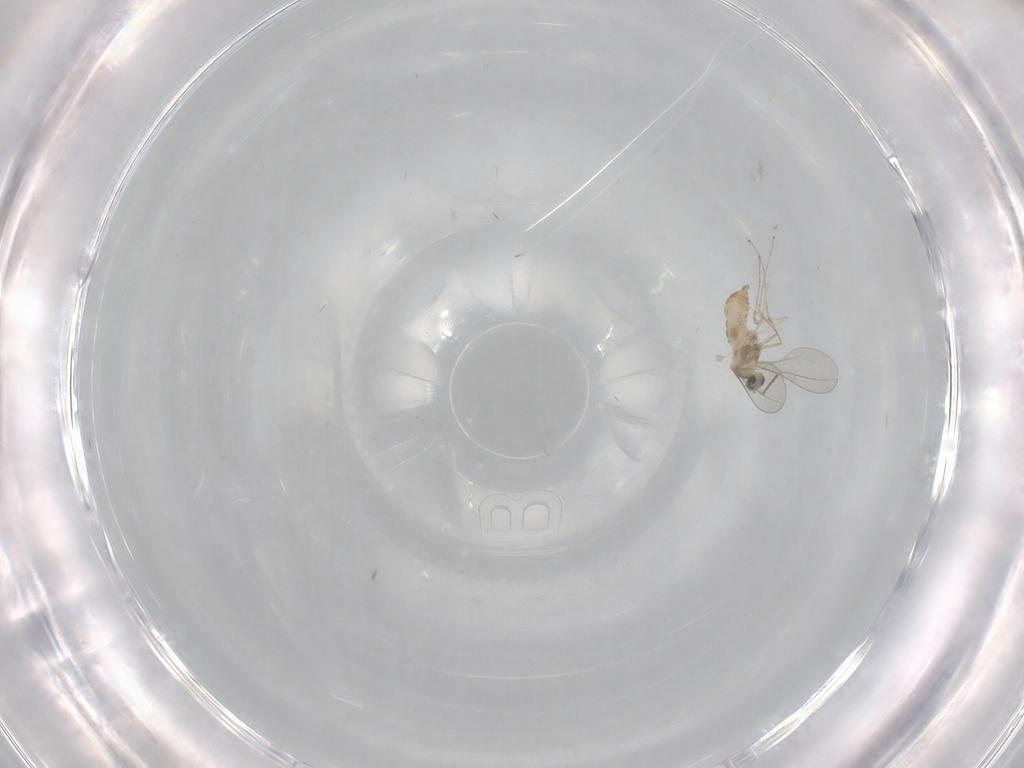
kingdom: Animalia
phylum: Arthropoda
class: Insecta
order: Diptera
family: Cecidomyiidae
